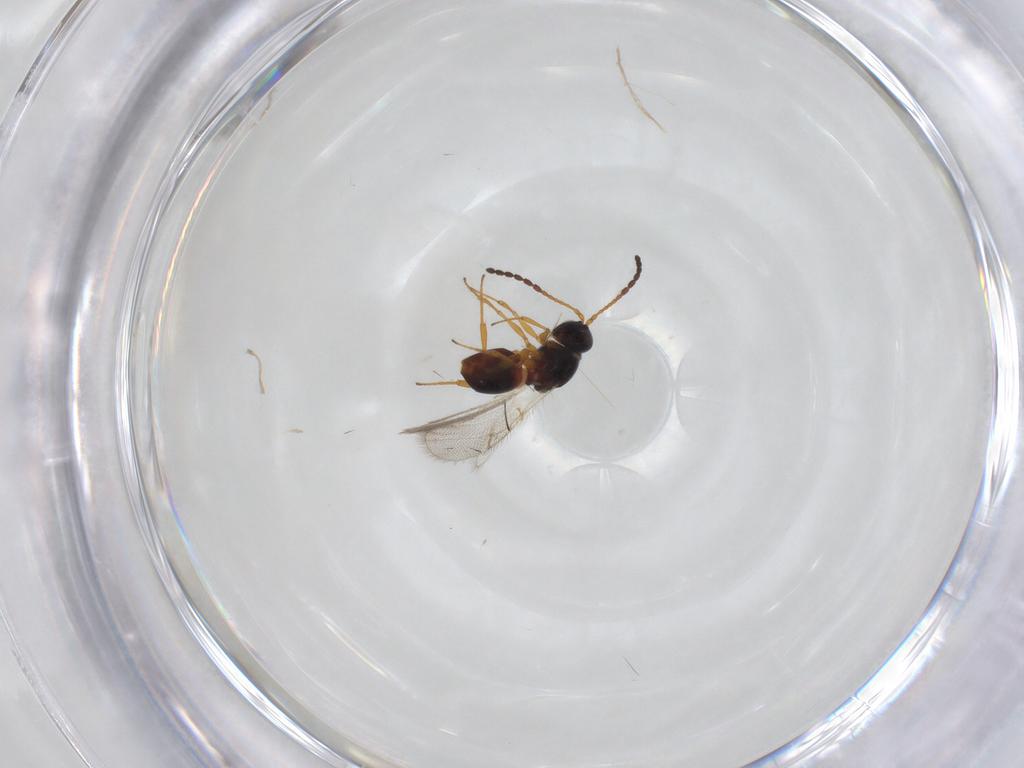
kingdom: Animalia
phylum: Arthropoda
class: Insecta
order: Hymenoptera
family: Figitidae
